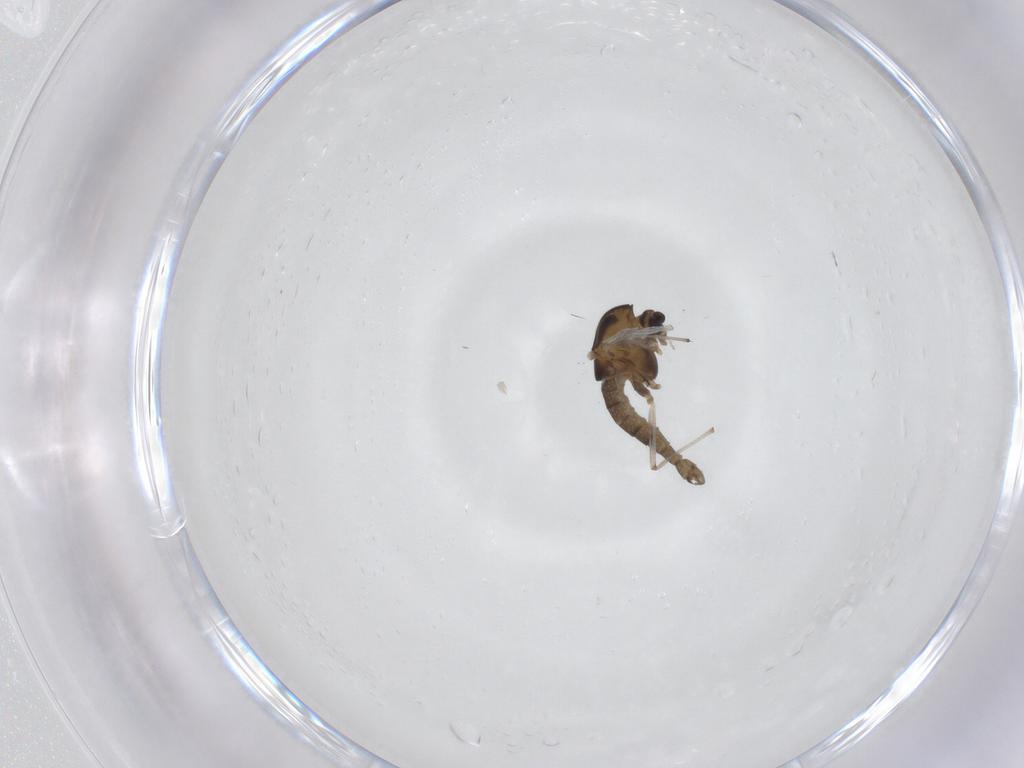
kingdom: Animalia
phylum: Arthropoda
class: Insecta
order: Diptera
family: Chironomidae
